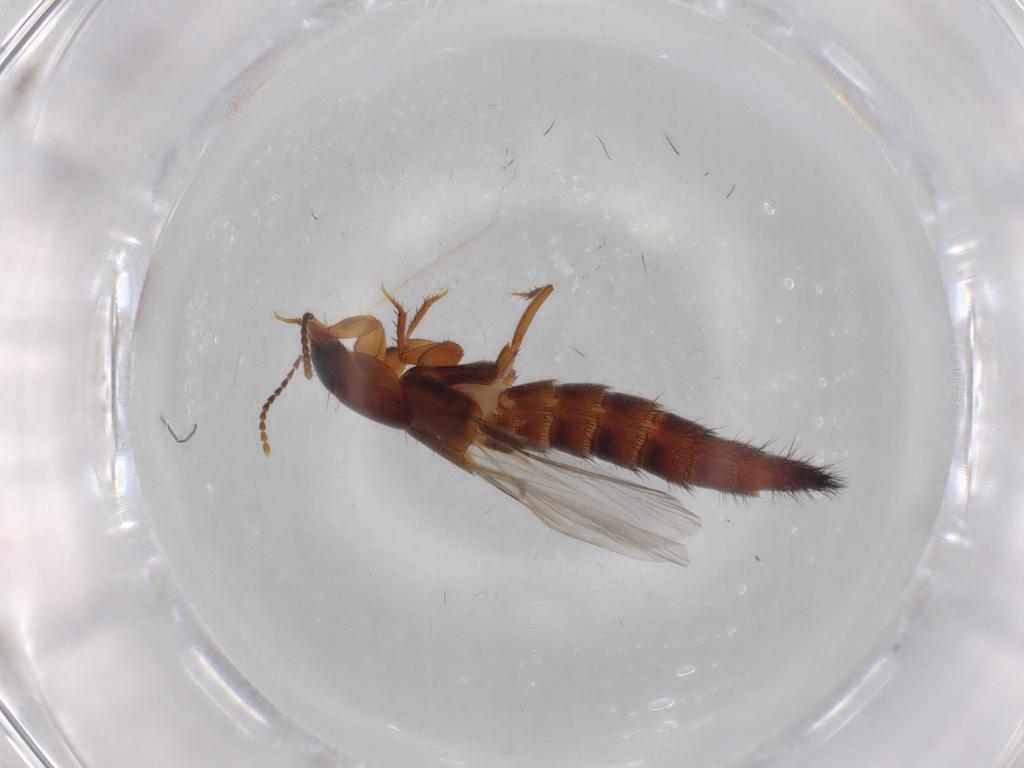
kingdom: Animalia
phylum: Arthropoda
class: Insecta
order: Coleoptera
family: Staphylinidae
